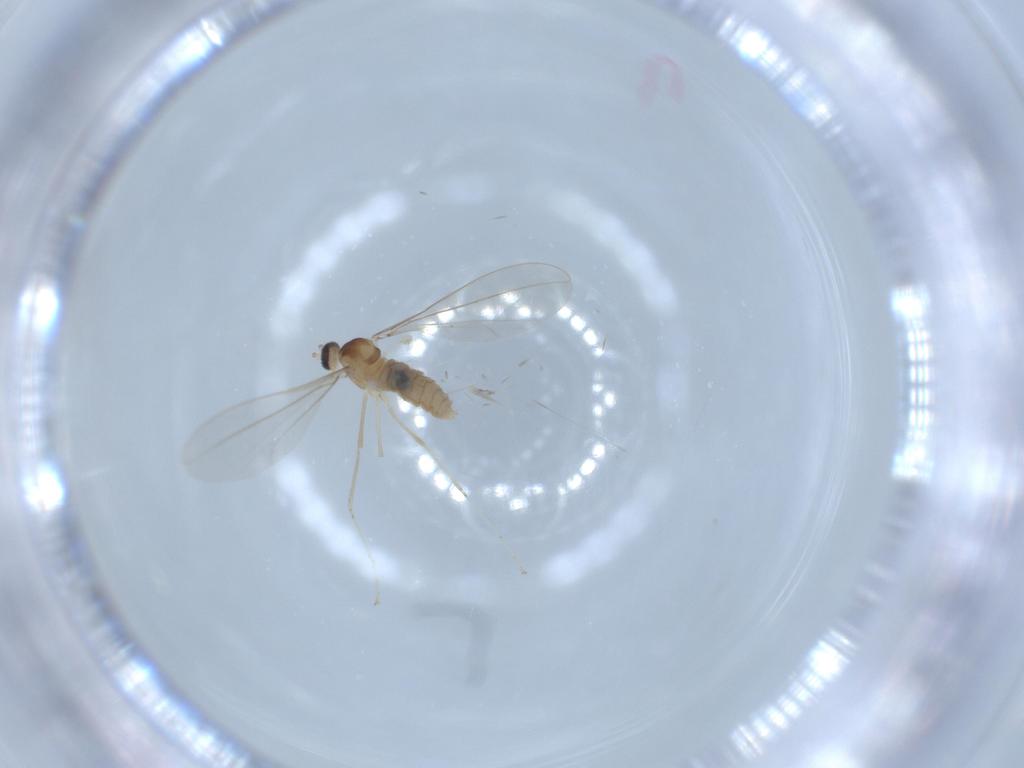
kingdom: Animalia
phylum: Arthropoda
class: Insecta
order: Diptera
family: Cecidomyiidae
